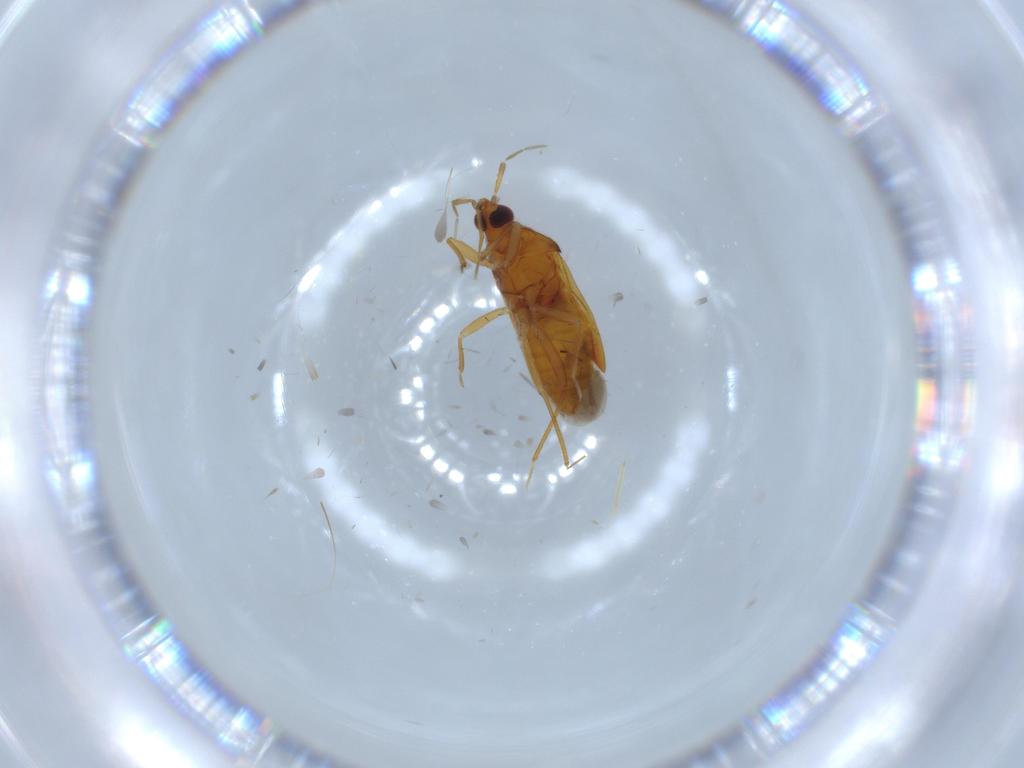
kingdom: Animalia
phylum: Arthropoda
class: Insecta
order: Hemiptera
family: Anthocoridae
